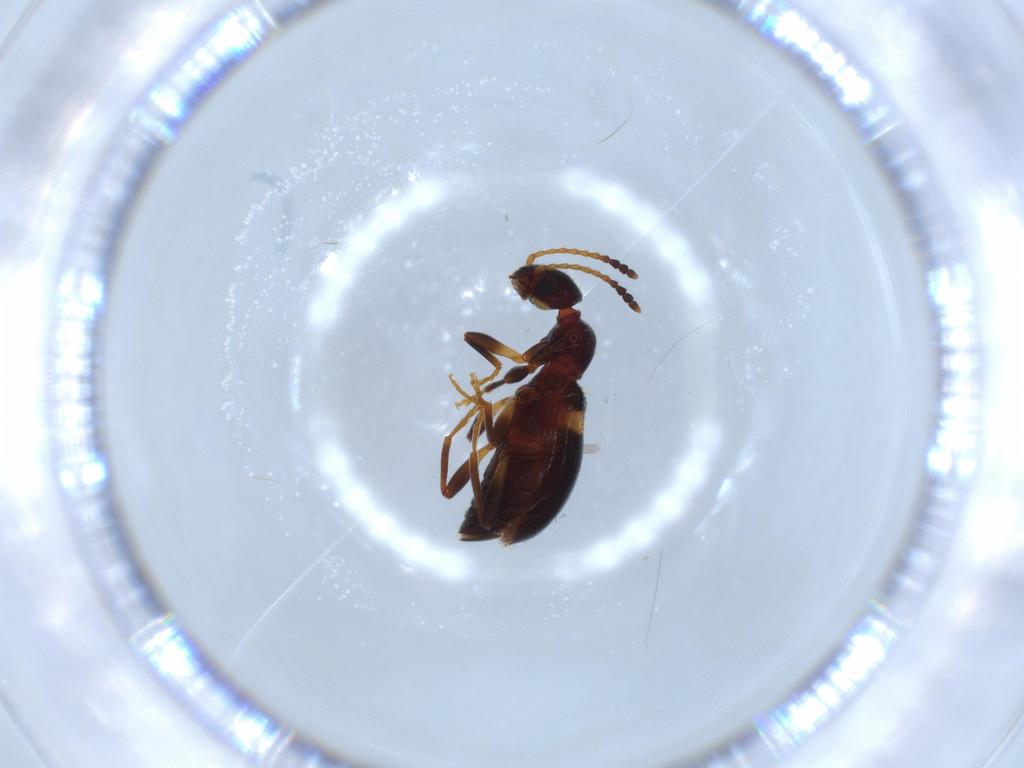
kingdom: Animalia
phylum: Arthropoda
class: Insecta
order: Coleoptera
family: Anthicidae
